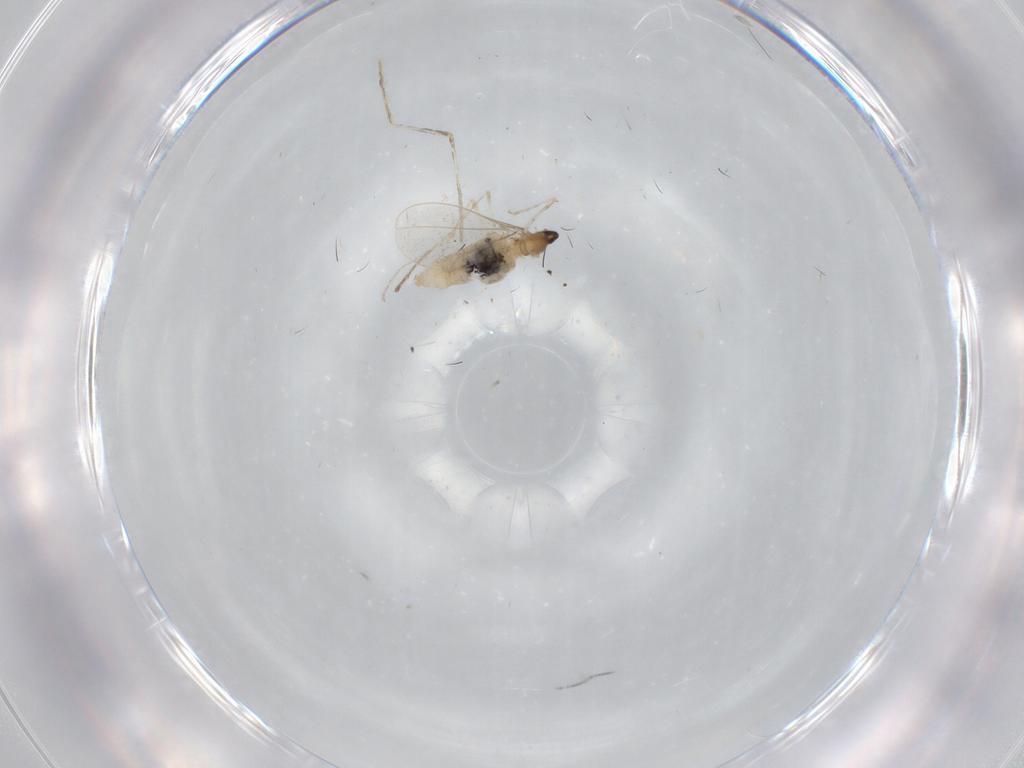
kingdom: Animalia
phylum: Arthropoda
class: Insecta
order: Diptera
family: Cecidomyiidae
